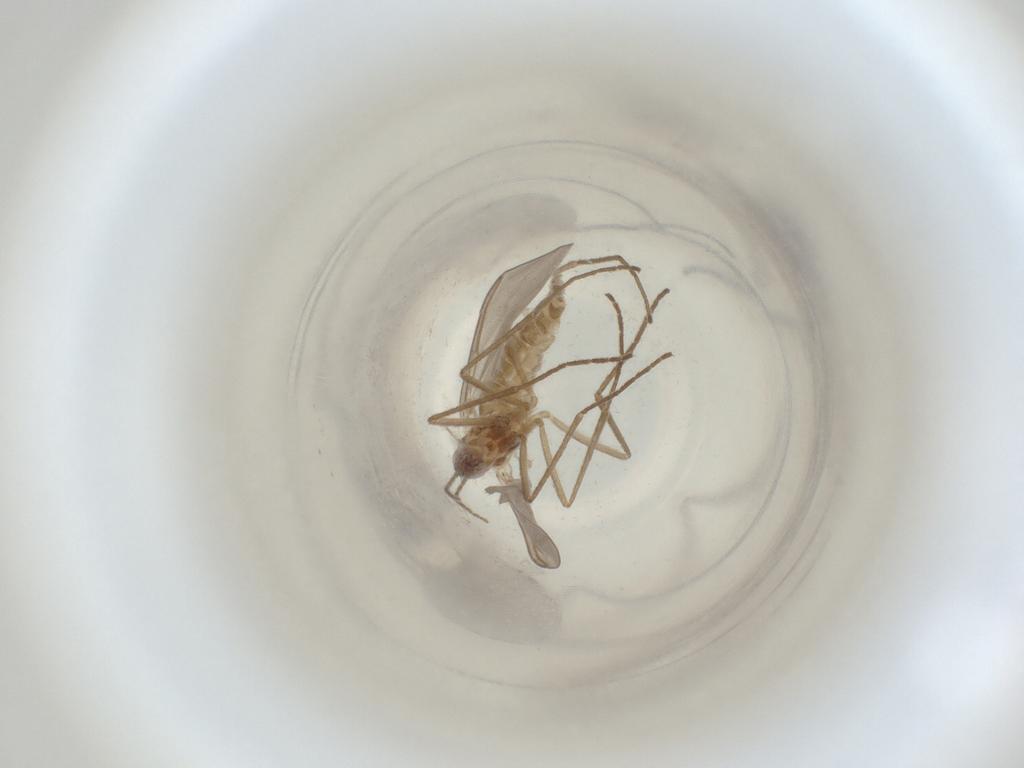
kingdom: Animalia
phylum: Arthropoda
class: Insecta
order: Diptera
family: Cecidomyiidae
